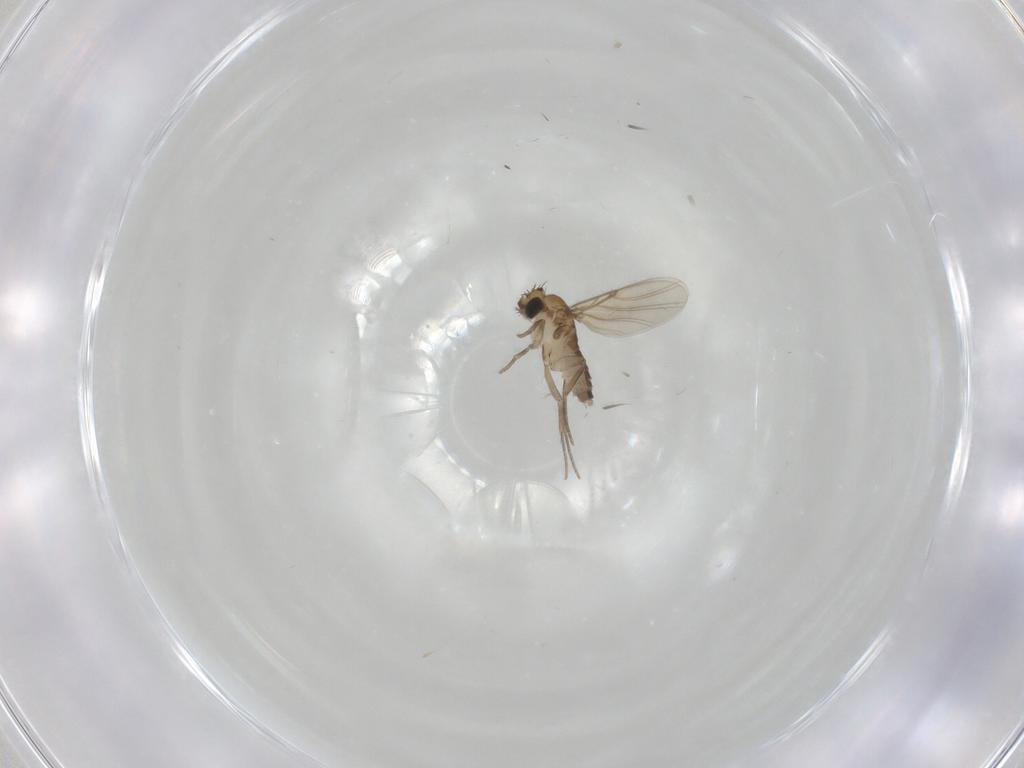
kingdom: Animalia
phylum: Arthropoda
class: Insecta
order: Diptera
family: Phoridae
